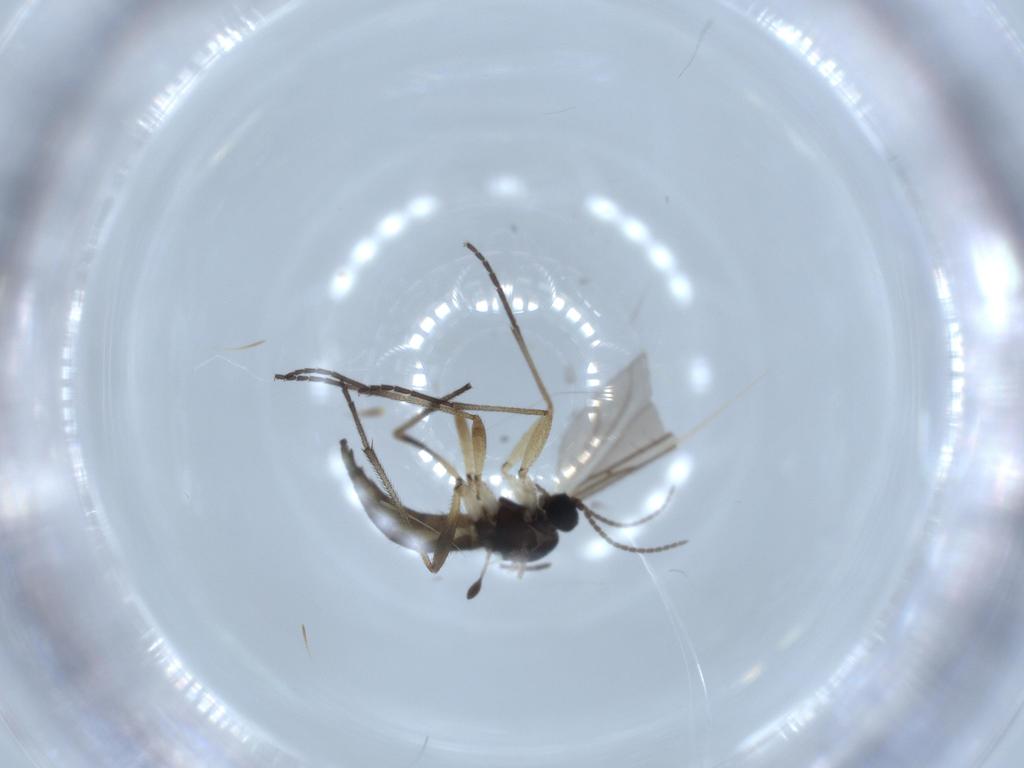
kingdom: Animalia
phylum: Arthropoda
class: Insecta
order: Diptera
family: Sciaridae
